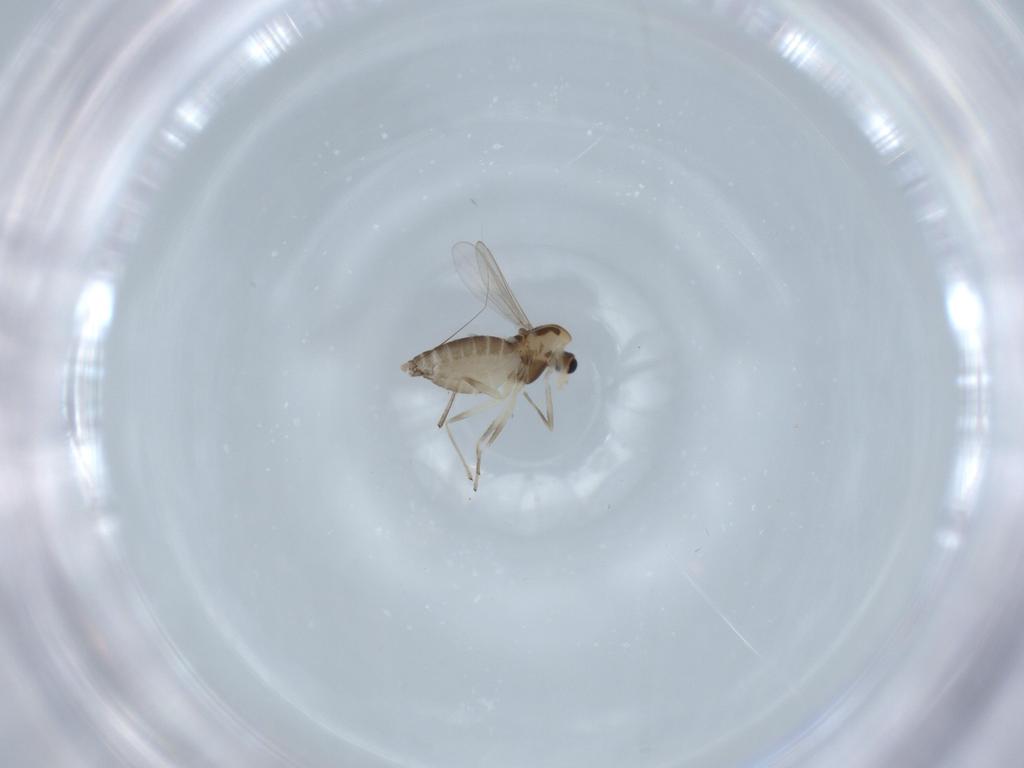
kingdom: Animalia
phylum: Arthropoda
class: Insecta
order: Diptera
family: Chironomidae
